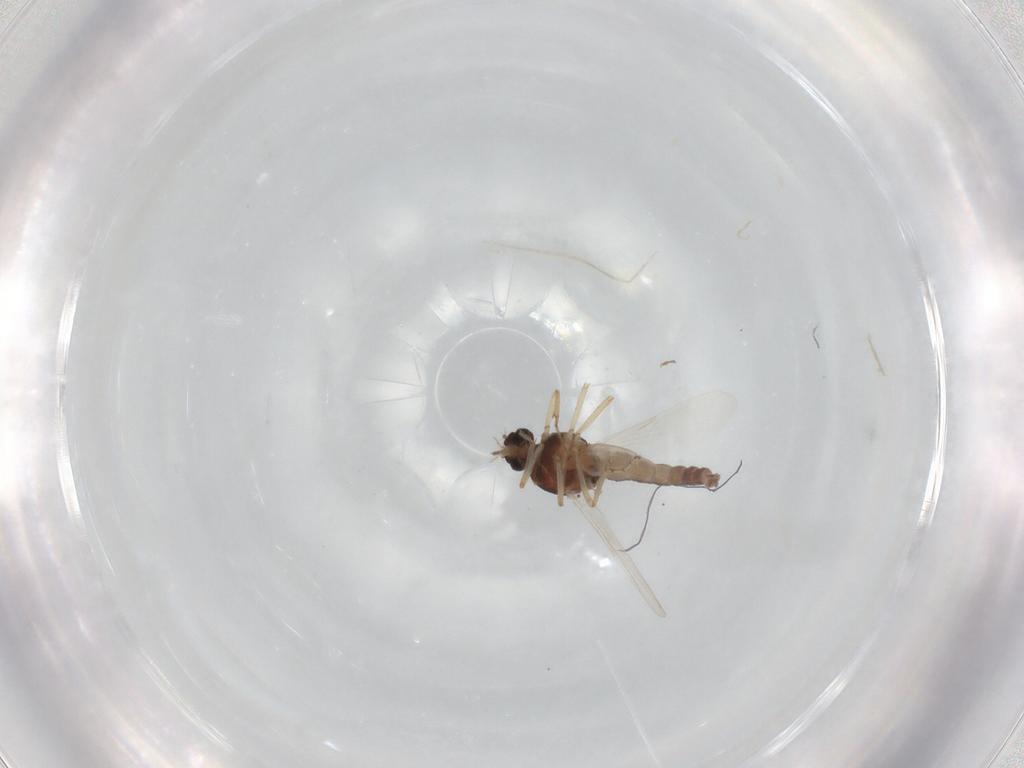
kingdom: Animalia
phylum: Arthropoda
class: Insecta
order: Diptera
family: Ceratopogonidae
